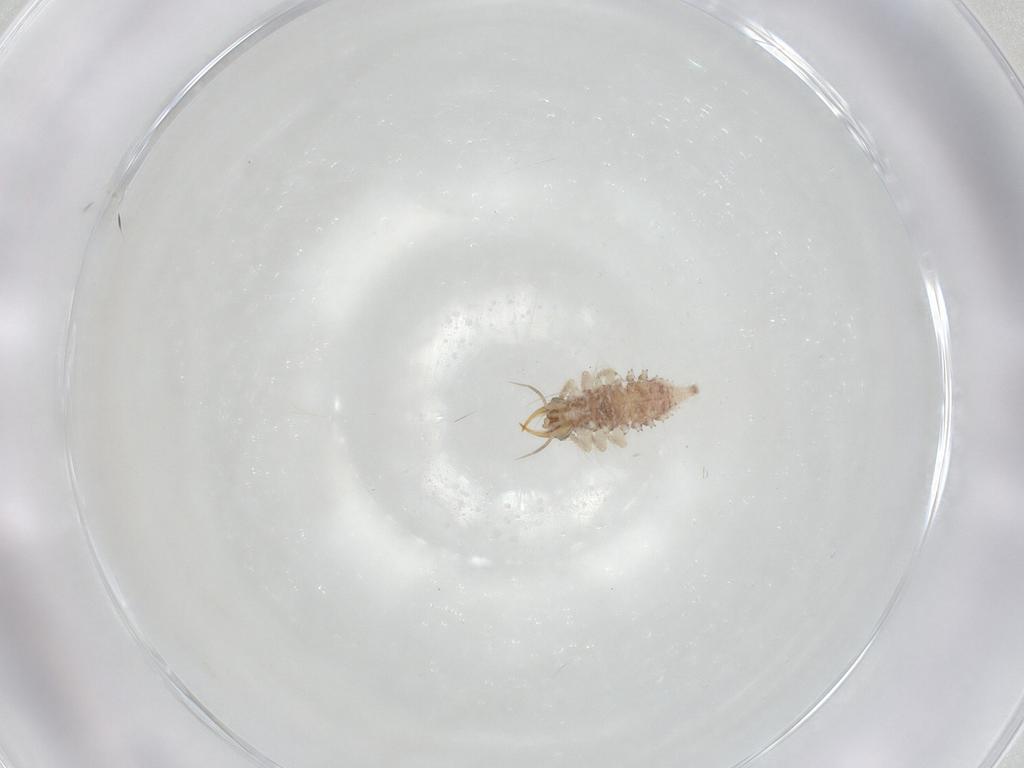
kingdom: Animalia
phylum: Arthropoda
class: Insecta
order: Neuroptera
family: Chrysopidae
